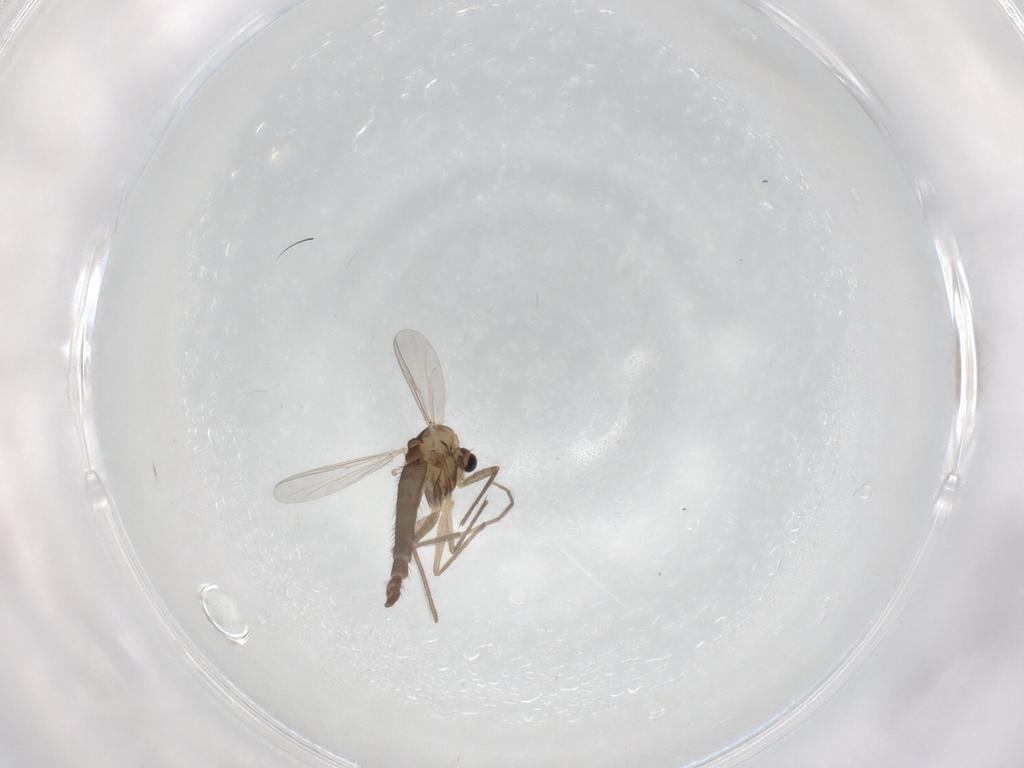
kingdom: Animalia
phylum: Arthropoda
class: Insecta
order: Diptera
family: Chironomidae
